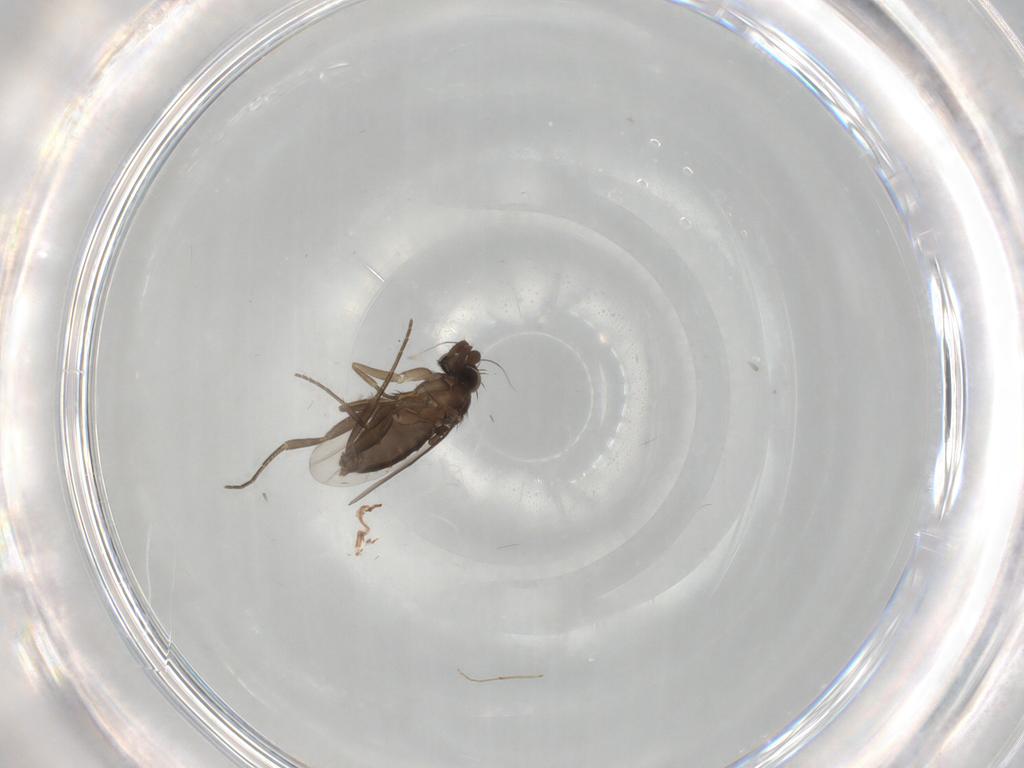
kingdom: Animalia
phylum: Arthropoda
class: Insecta
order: Diptera
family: Phoridae
